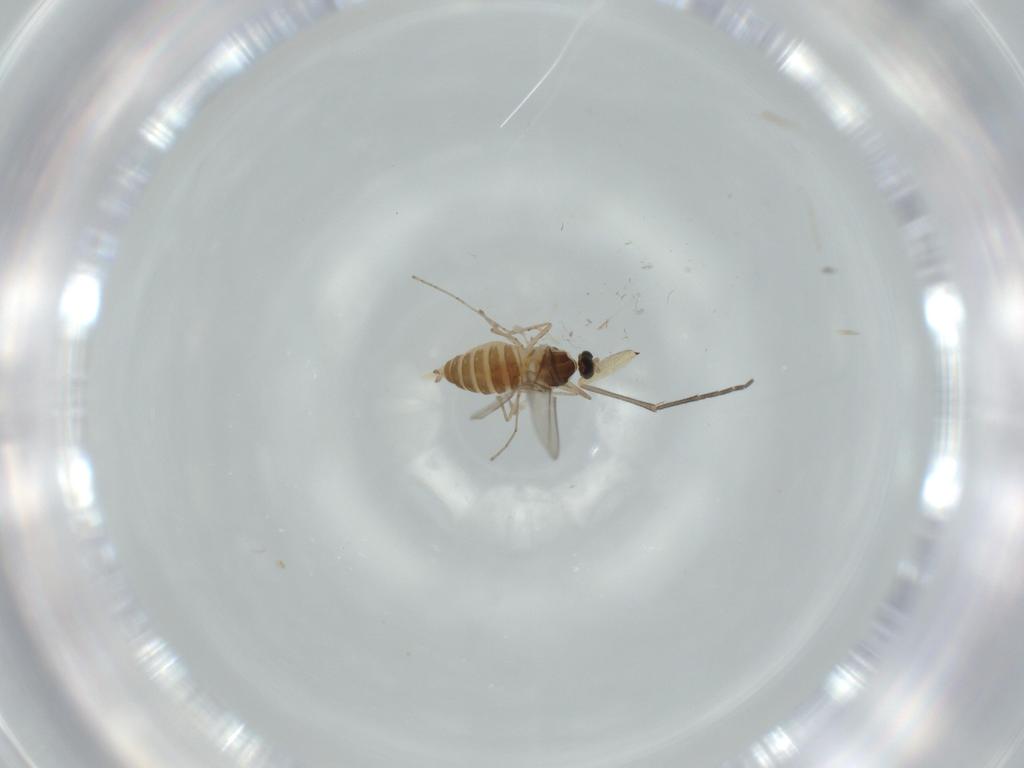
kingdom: Animalia
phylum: Arthropoda
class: Insecta
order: Diptera
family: Cecidomyiidae
